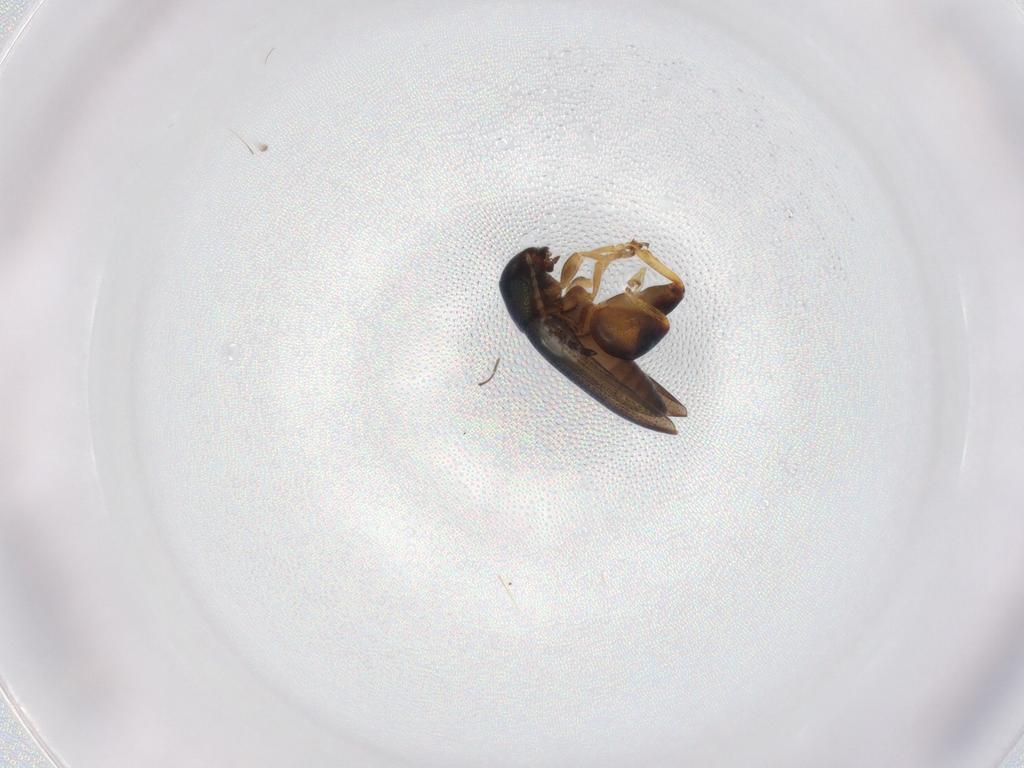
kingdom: Animalia
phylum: Arthropoda
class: Insecta
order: Coleoptera
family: Chrysomelidae
